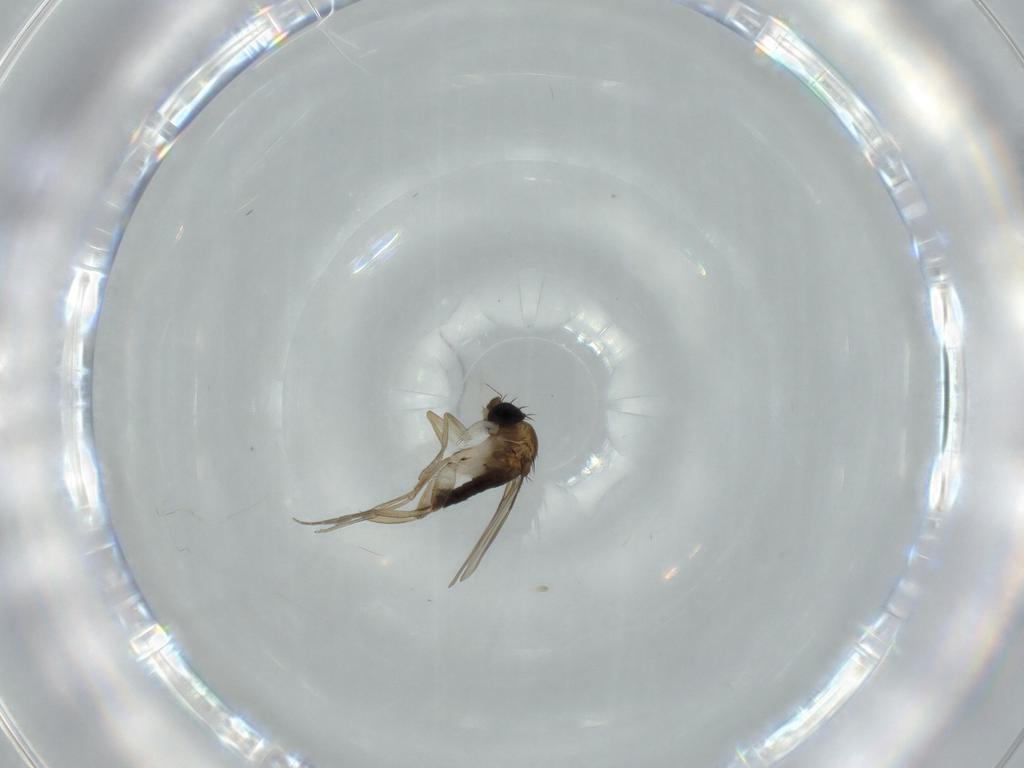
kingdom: Animalia
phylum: Arthropoda
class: Insecta
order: Diptera
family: Phoridae
